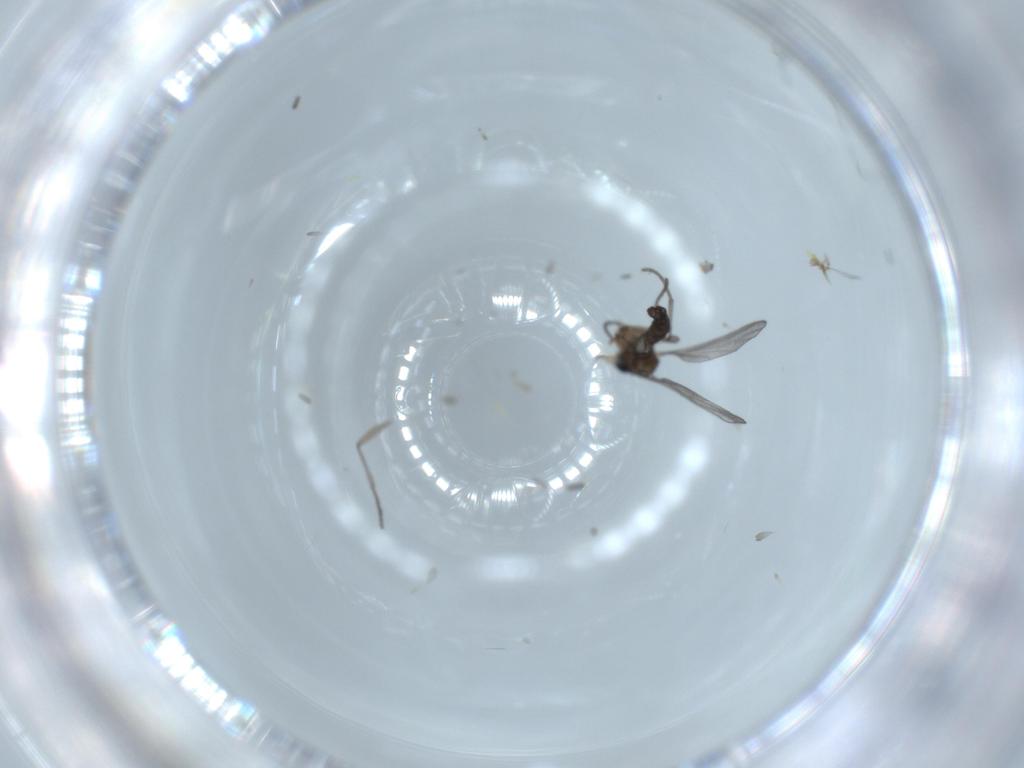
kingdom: Animalia
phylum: Arthropoda
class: Insecta
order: Diptera
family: Ceratopogonidae
